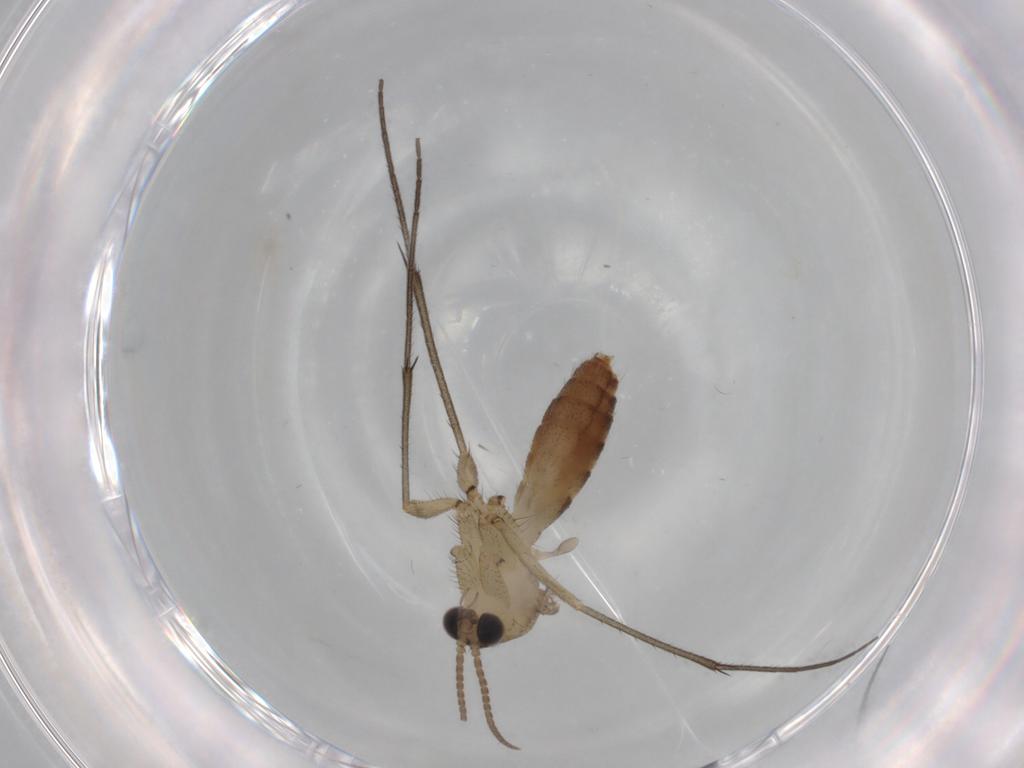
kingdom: Animalia
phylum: Arthropoda
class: Insecta
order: Diptera
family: Mycetophilidae
